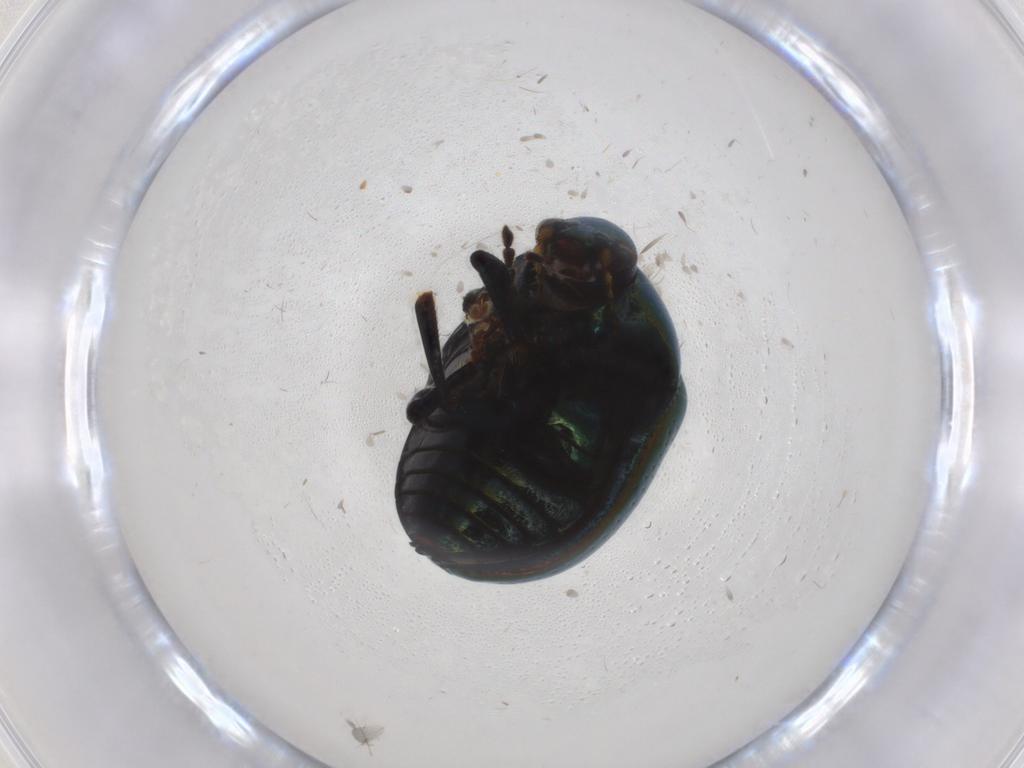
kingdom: Animalia
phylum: Arthropoda
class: Insecta
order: Coleoptera
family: Chrysomelidae
